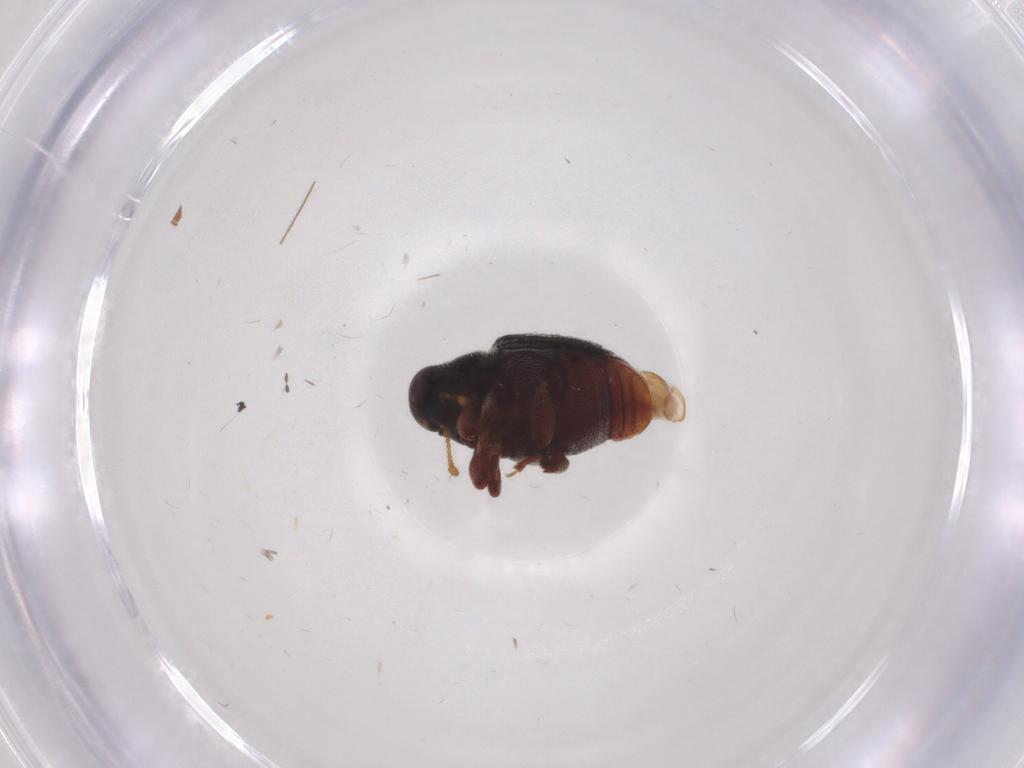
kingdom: Animalia
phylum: Arthropoda
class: Insecta
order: Coleoptera
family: Curculionidae
